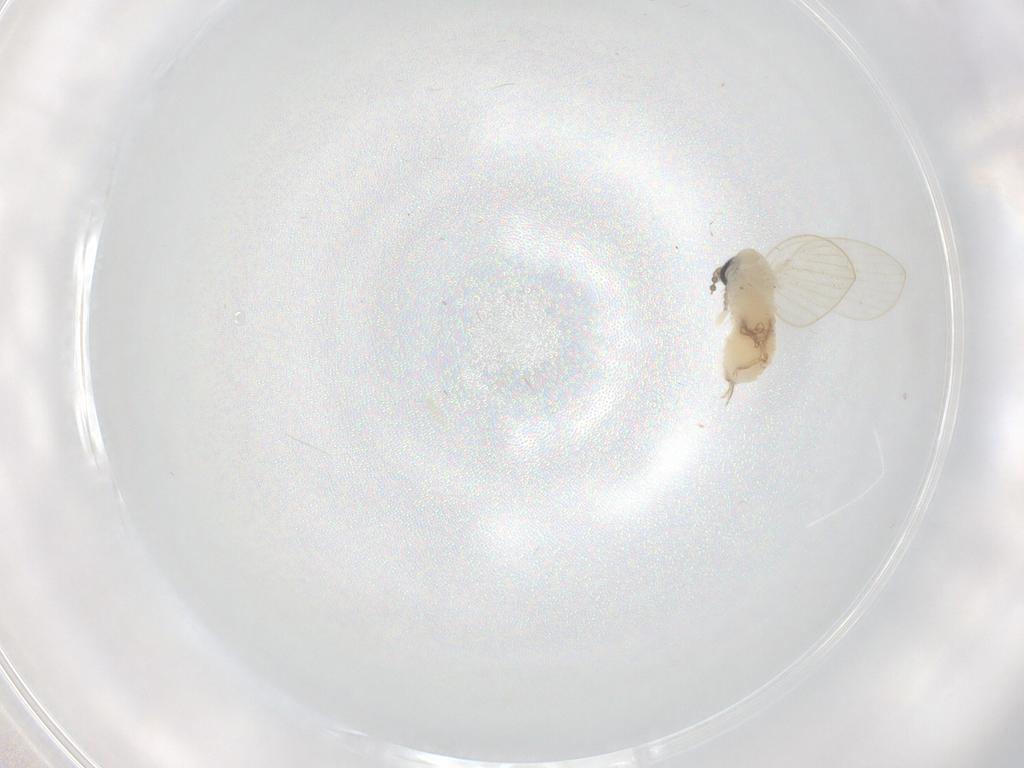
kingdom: Animalia
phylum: Arthropoda
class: Insecta
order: Diptera
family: Psychodidae
